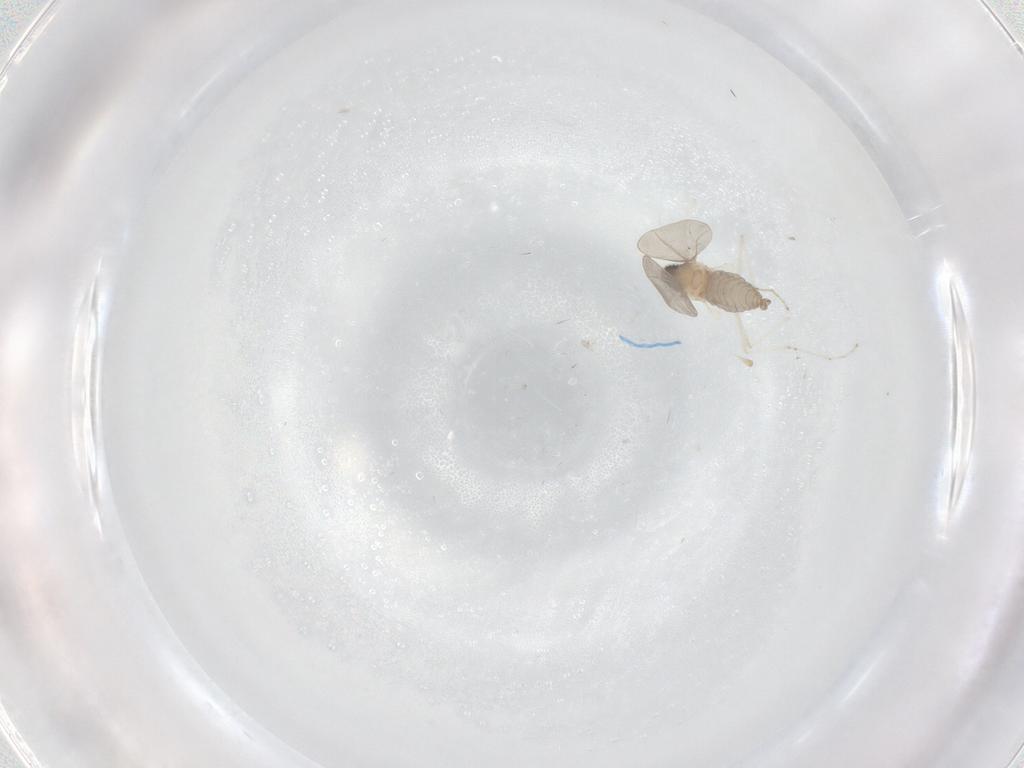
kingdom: Animalia
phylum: Arthropoda
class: Insecta
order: Diptera
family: Cecidomyiidae
